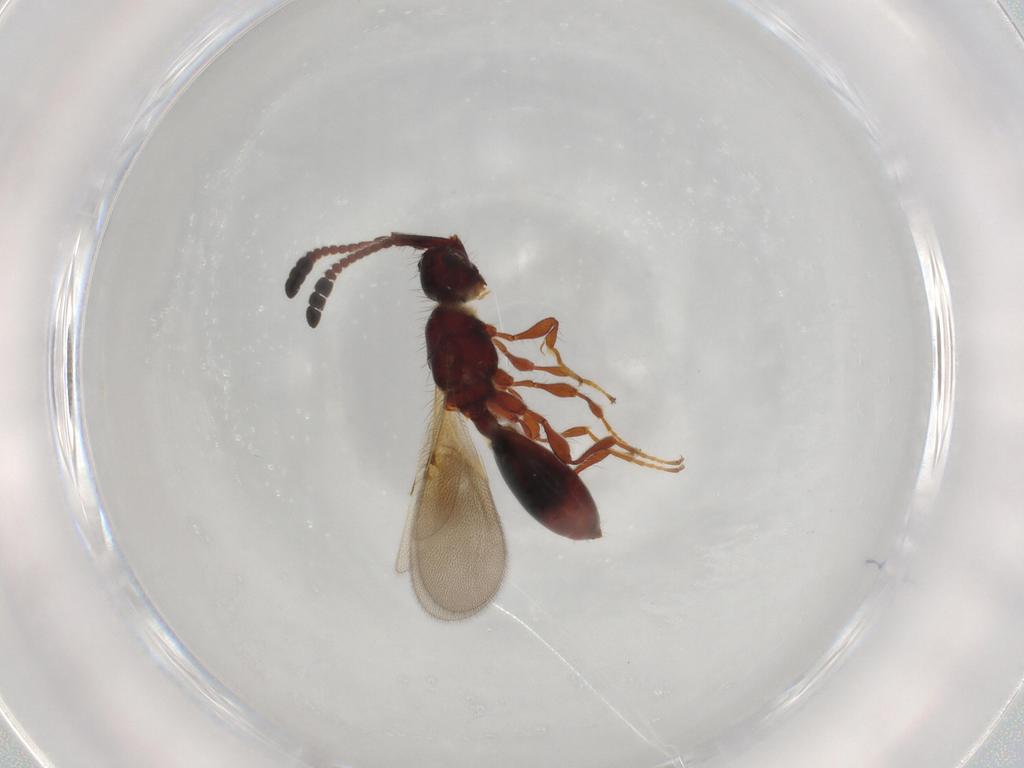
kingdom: Animalia
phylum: Arthropoda
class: Insecta
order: Hymenoptera
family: Diapriidae
